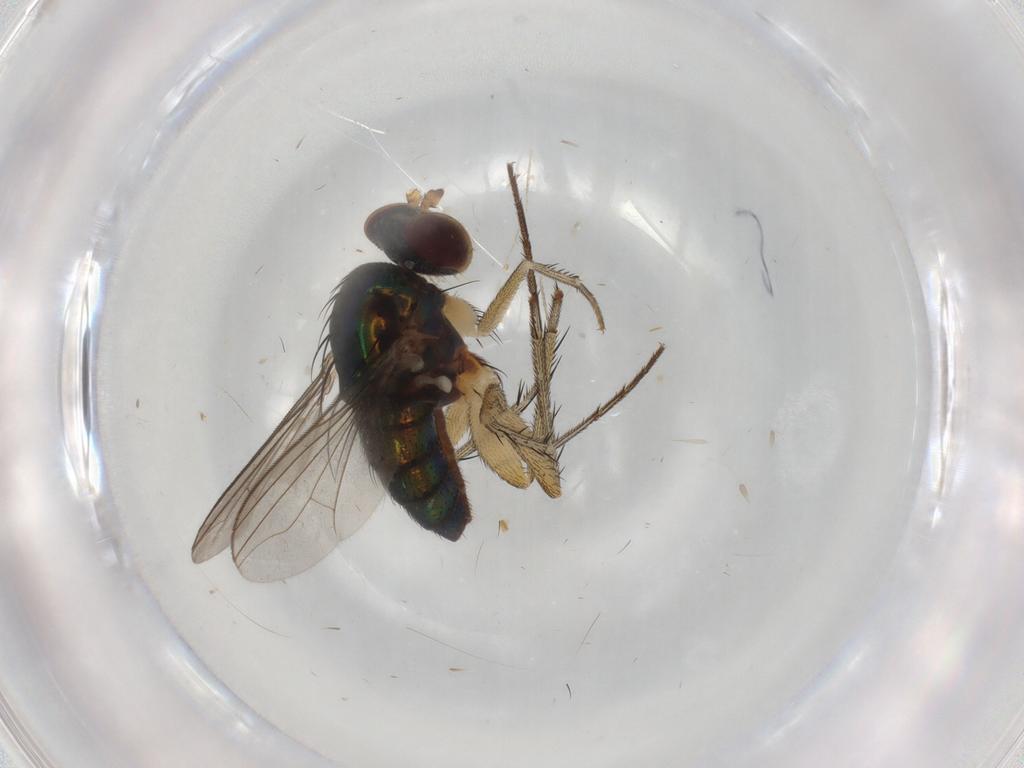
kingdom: Animalia
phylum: Arthropoda
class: Insecta
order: Diptera
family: Dolichopodidae
